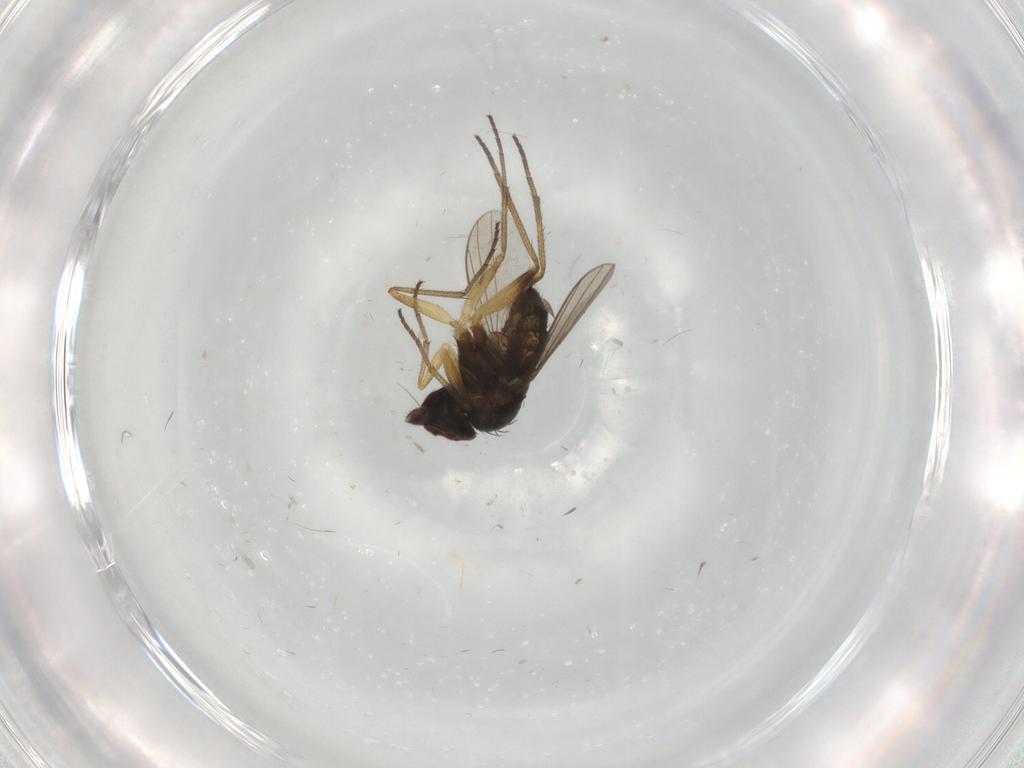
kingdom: Animalia
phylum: Arthropoda
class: Insecta
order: Diptera
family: Dolichopodidae
